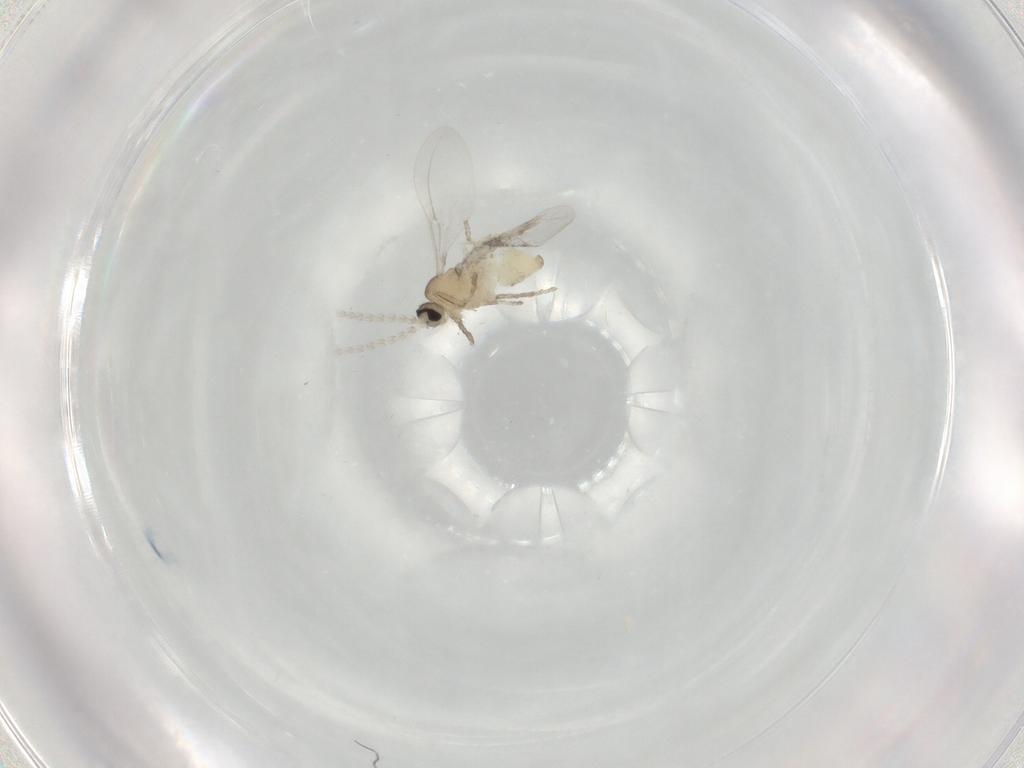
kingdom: Animalia
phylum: Arthropoda
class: Insecta
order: Diptera
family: Cecidomyiidae
